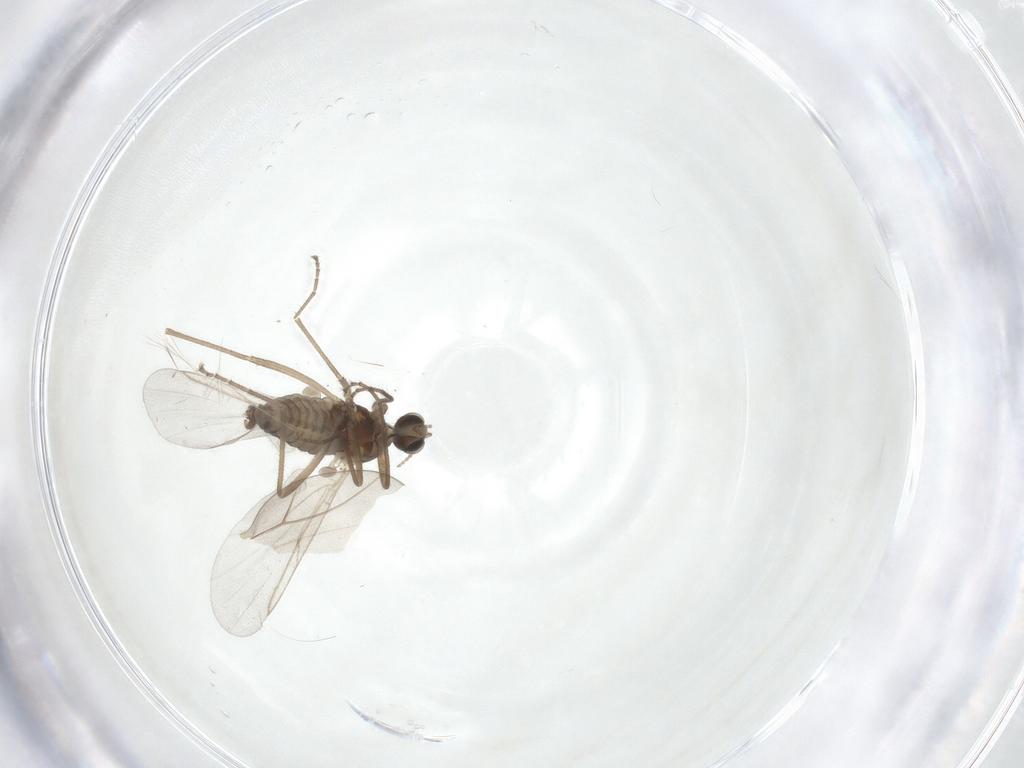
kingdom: Animalia
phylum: Arthropoda
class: Insecta
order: Diptera
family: Cecidomyiidae
